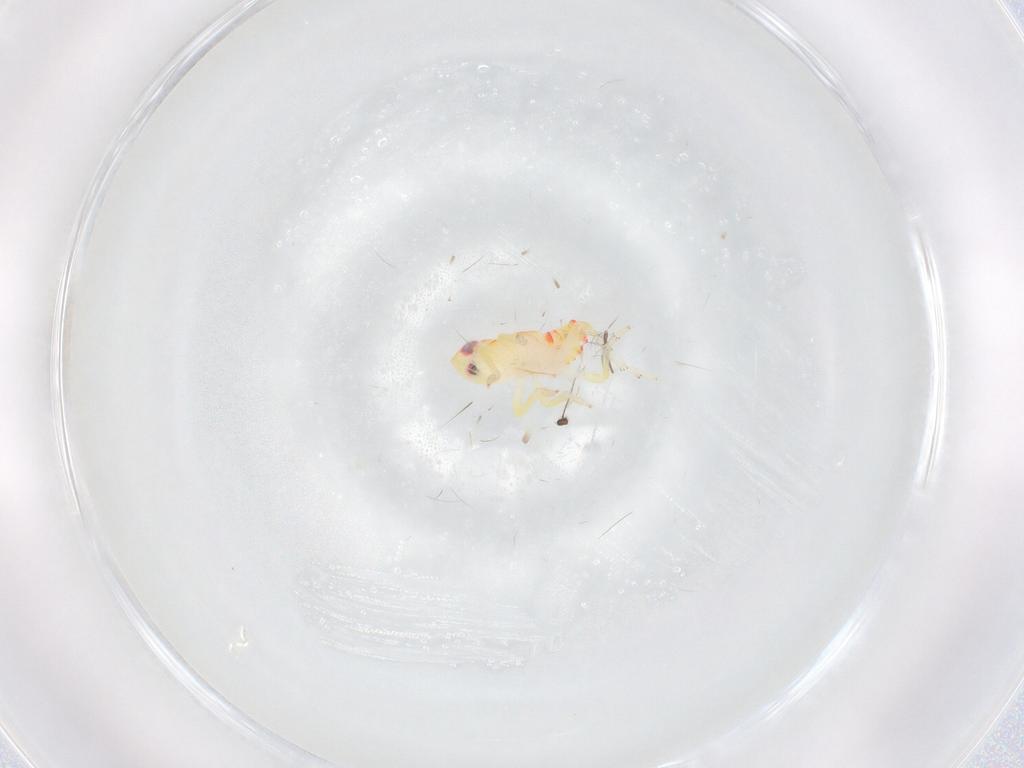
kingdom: Animalia
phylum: Arthropoda
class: Insecta
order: Hemiptera
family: Tropiduchidae
